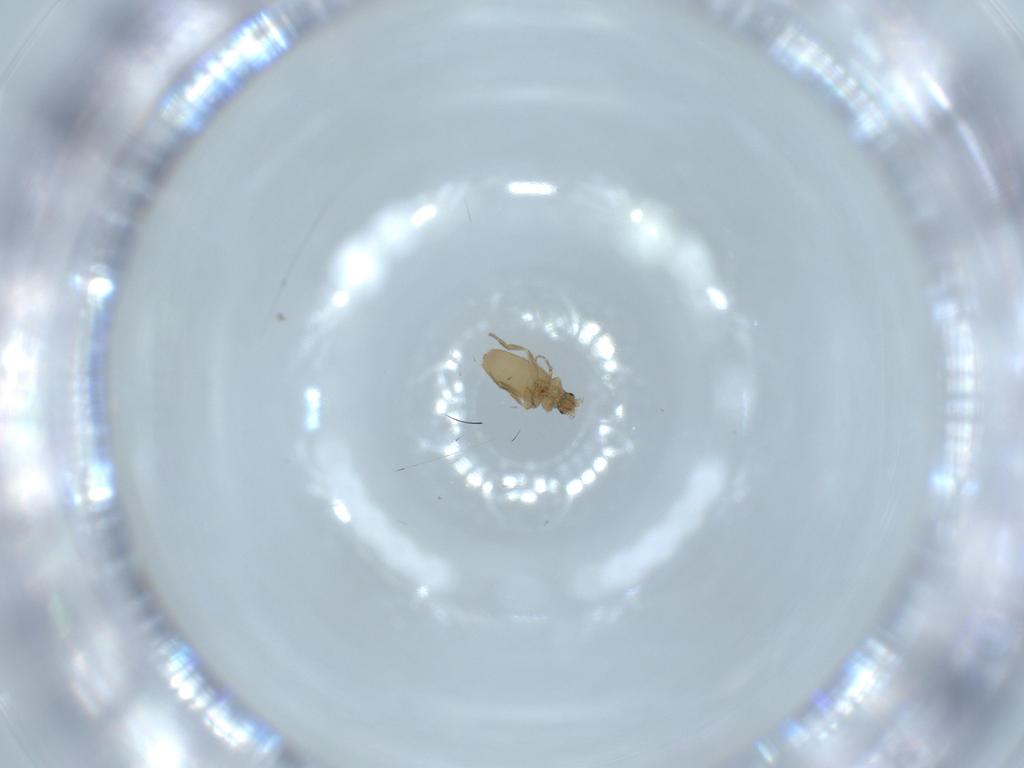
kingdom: Animalia
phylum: Arthropoda
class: Insecta
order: Diptera
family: Phoridae
